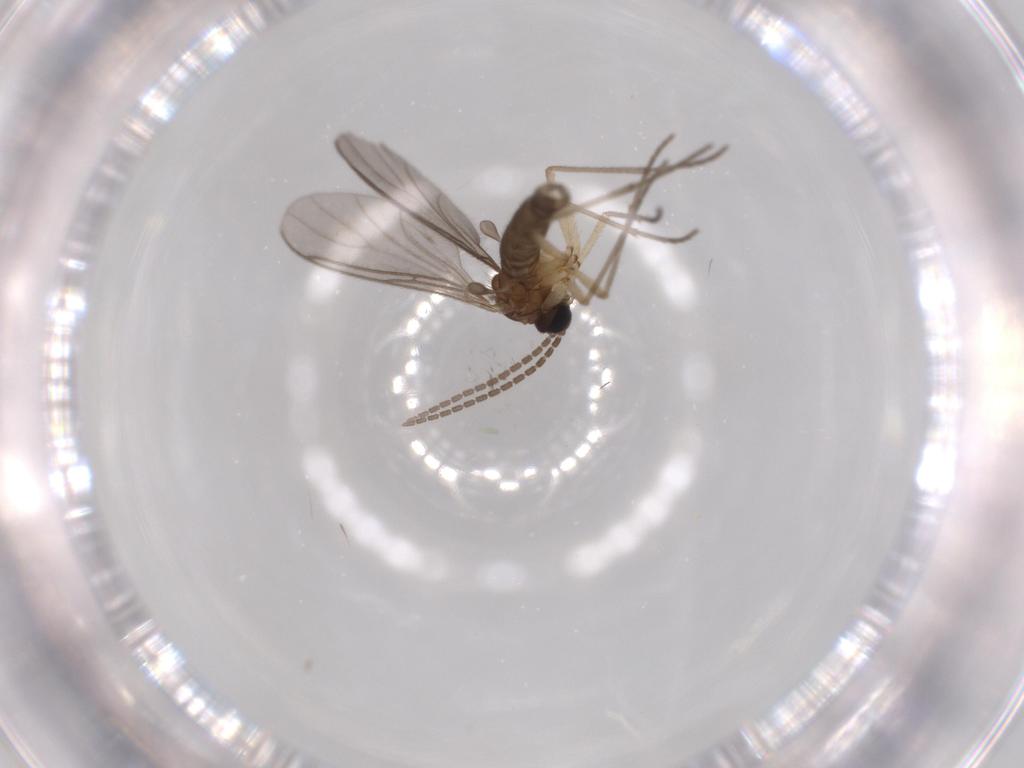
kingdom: Animalia
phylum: Arthropoda
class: Insecta
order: Diptera
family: Sciaridae
